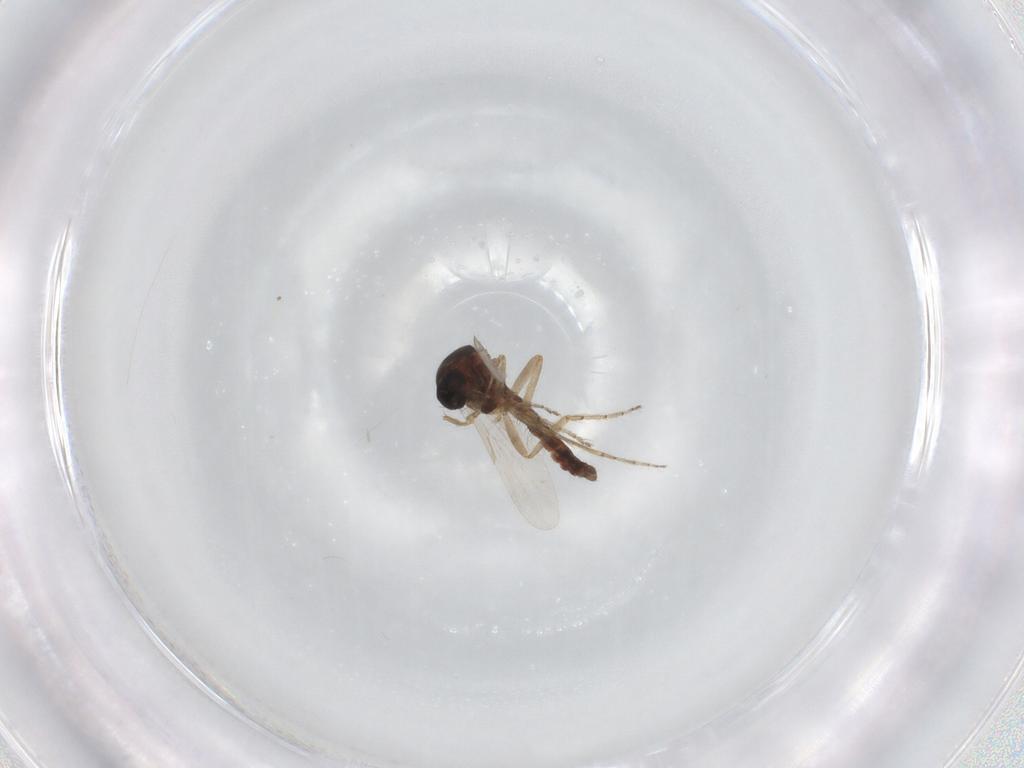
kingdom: Animalia
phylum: Arthropoda
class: Insecta
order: Diptera
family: Ceratopogonidae
